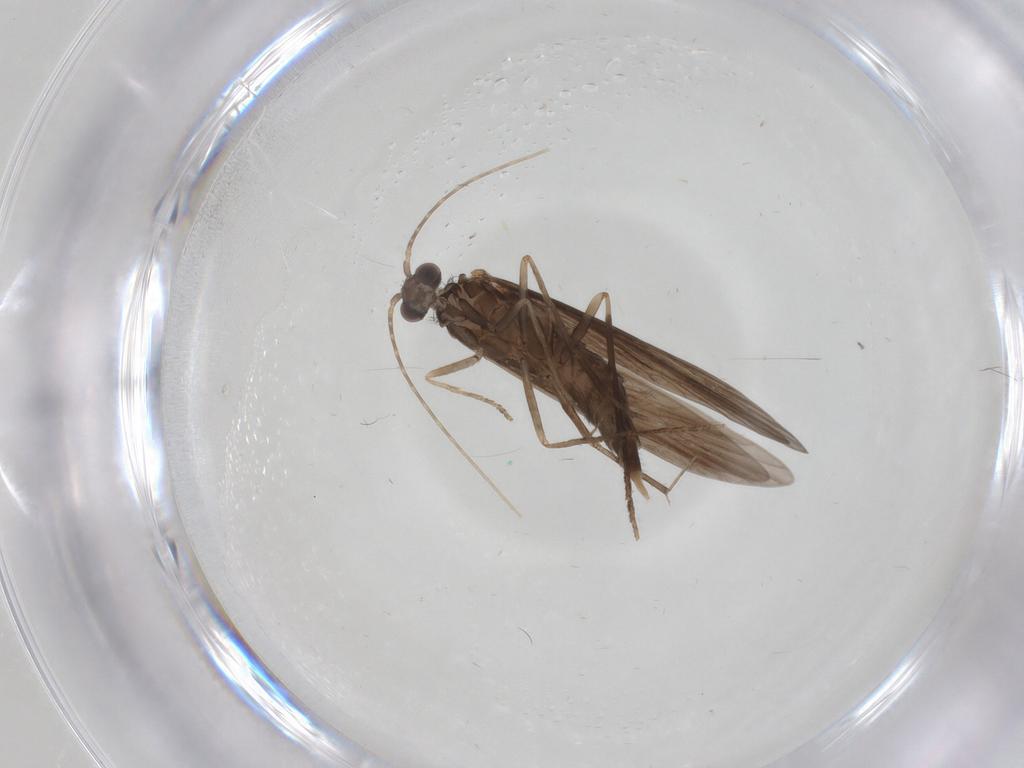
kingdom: Animalia
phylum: Arthropoda
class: Insecta
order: Trichoptera
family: Xiphocentronidae
